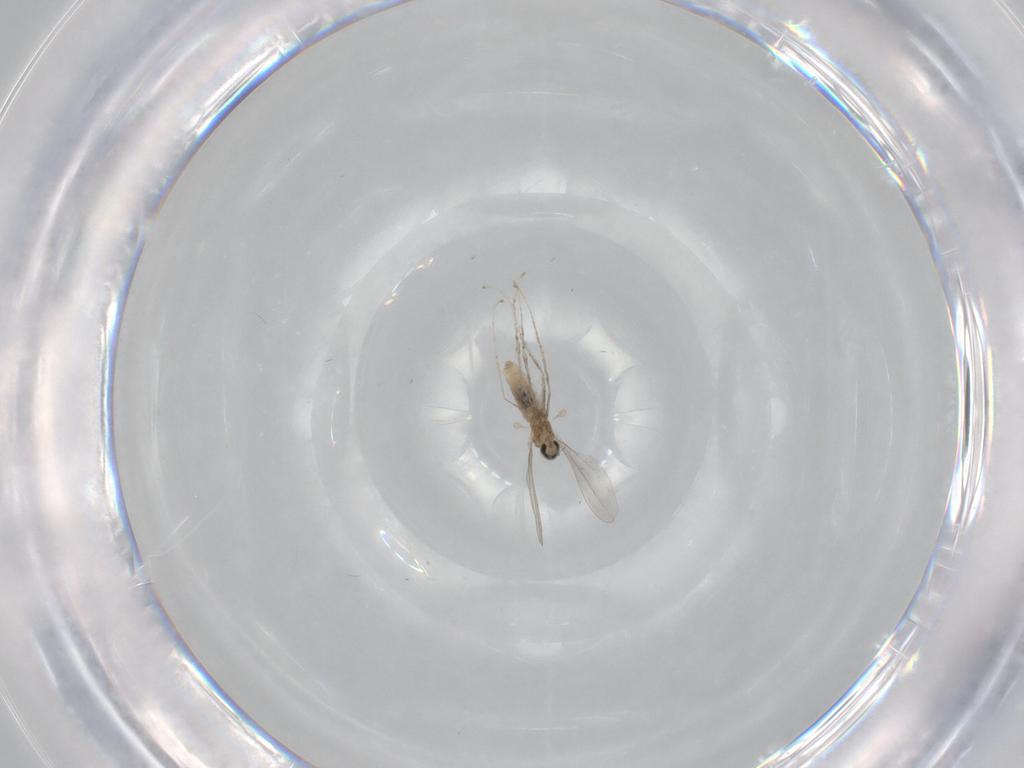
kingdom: Animalia
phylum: Arthropoda
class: Insecta
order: Diptera
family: Cecidomyiidae
